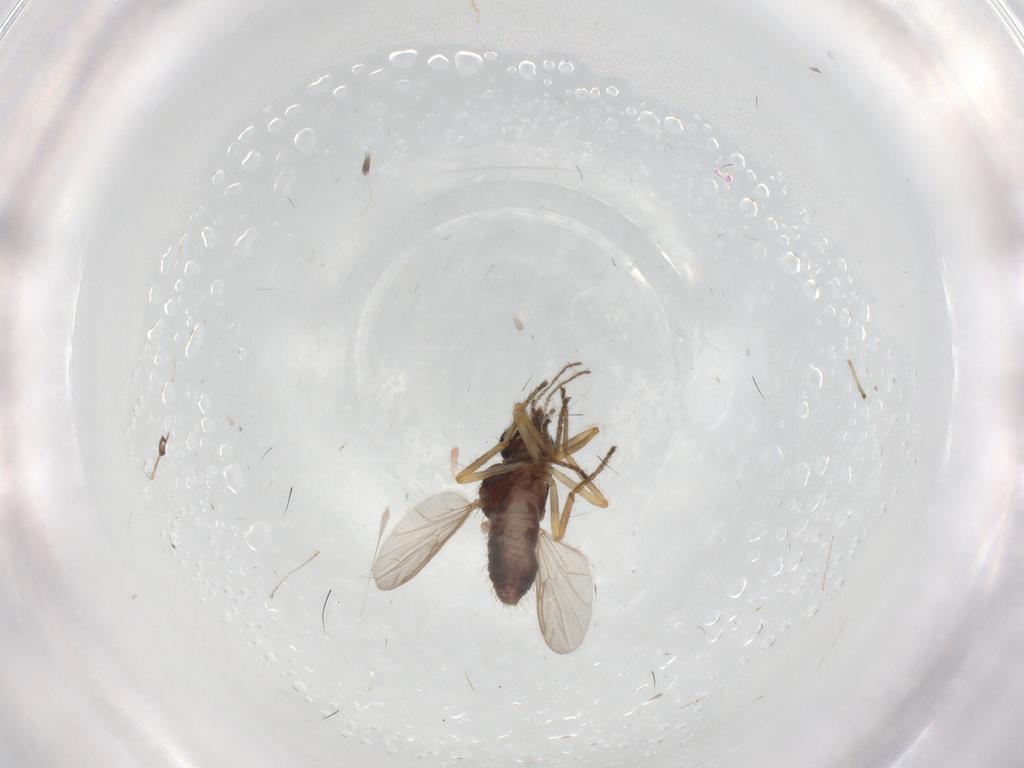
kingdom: Animalia
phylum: Arthropoda
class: Insecta
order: Diptera
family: Ceratopogonidae
